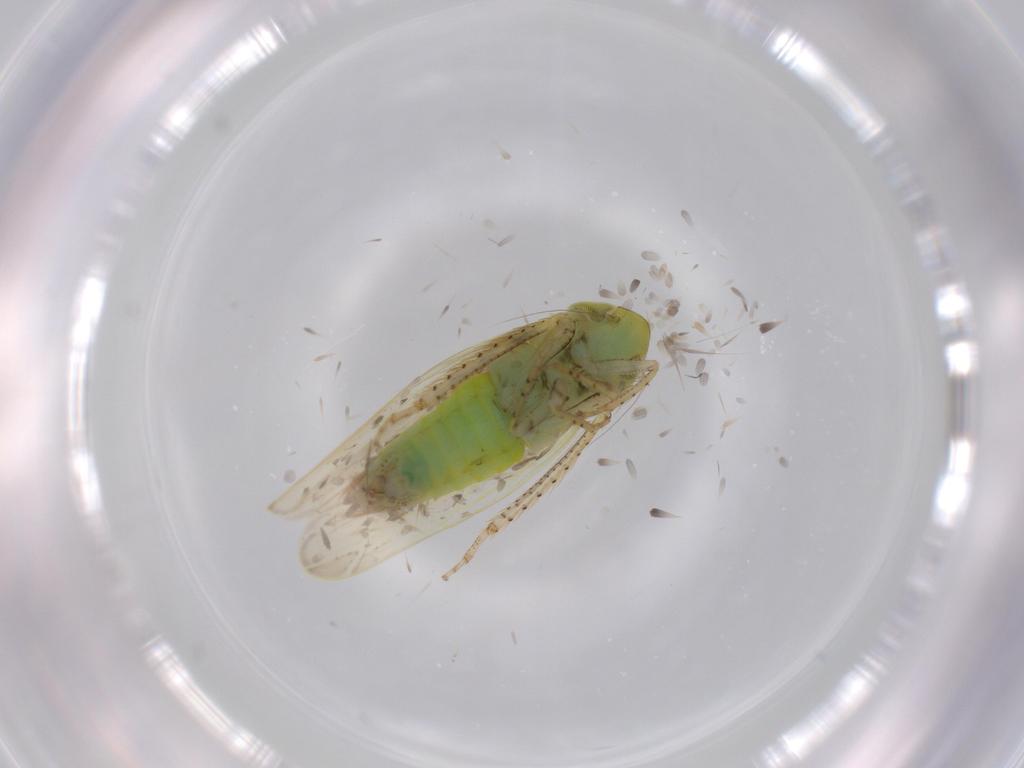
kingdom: Animalia
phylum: Arthropoda
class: Insecta
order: Hemiptera
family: Cicadellidae
